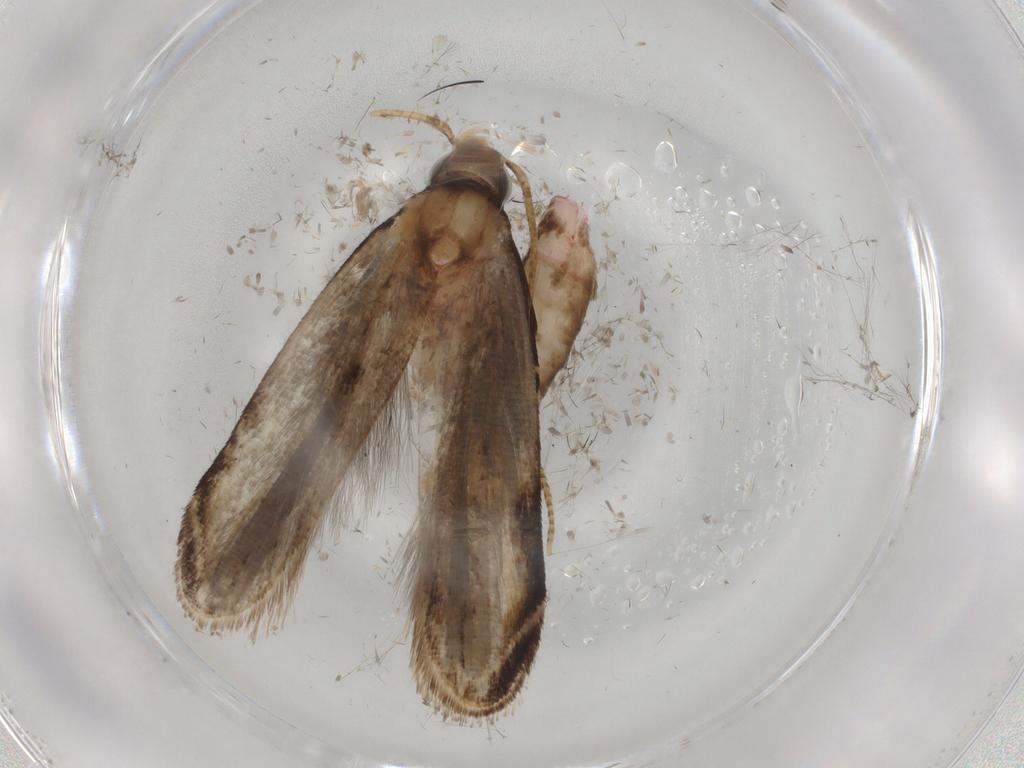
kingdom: Animalia
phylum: Arthropoda
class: Insecta
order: Lepidoptera
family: Gelechiidae
